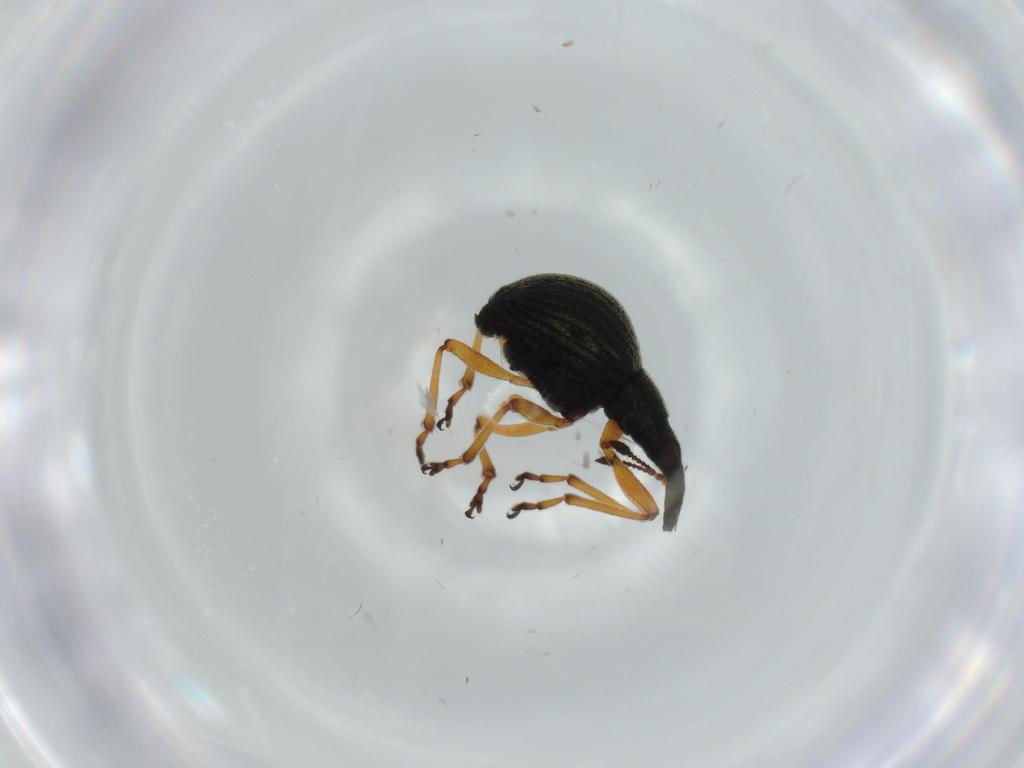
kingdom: Animalia
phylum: Arthropoda
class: Insecta
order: Coleoptera
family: Brentidae
